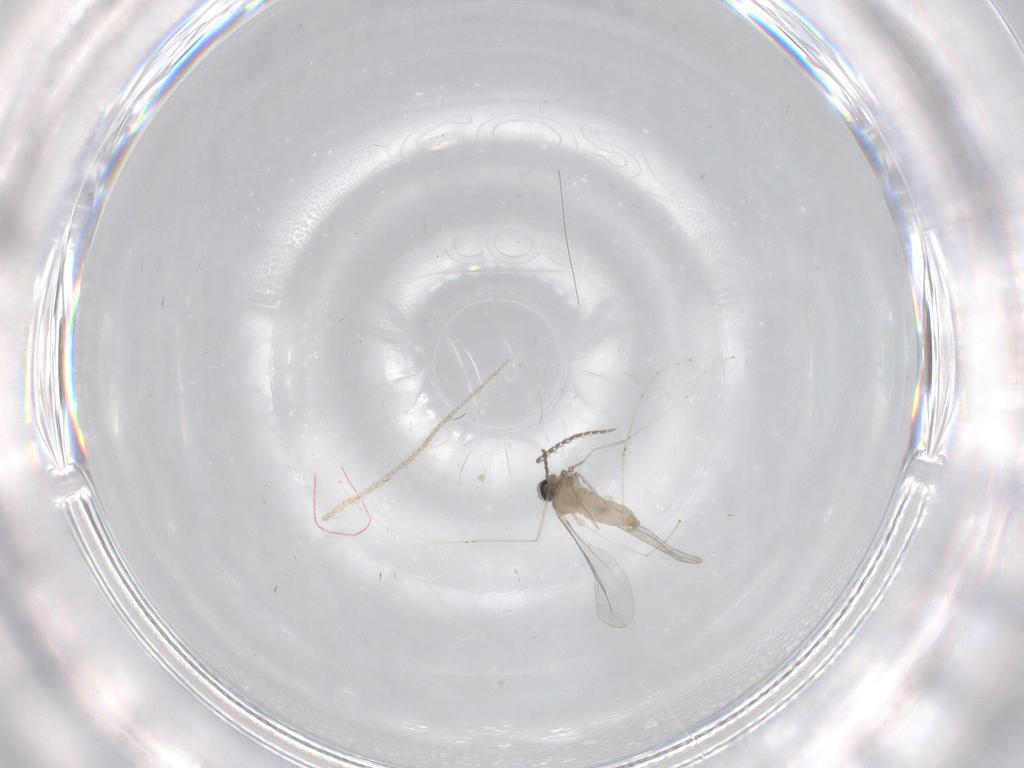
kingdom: Animalia
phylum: Arthropoda
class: Insecta
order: Diptera
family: Cecidomyiidae
